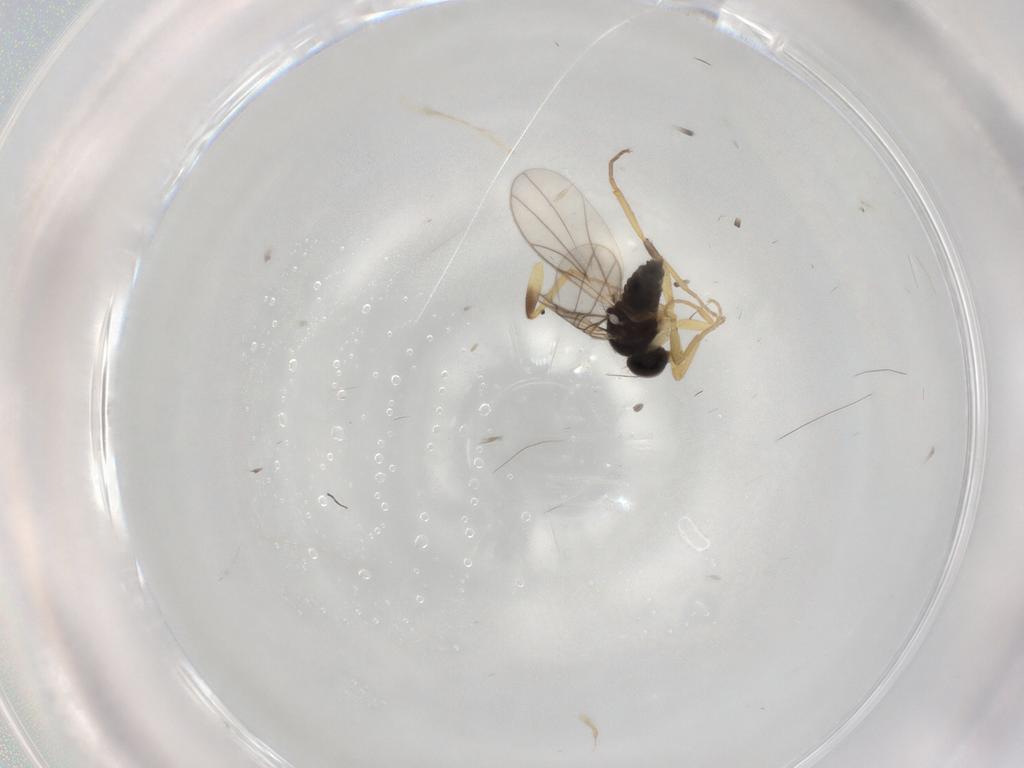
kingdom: Animalia
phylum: Arthropoda
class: Insecta
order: Diptera
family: Hybotidae
